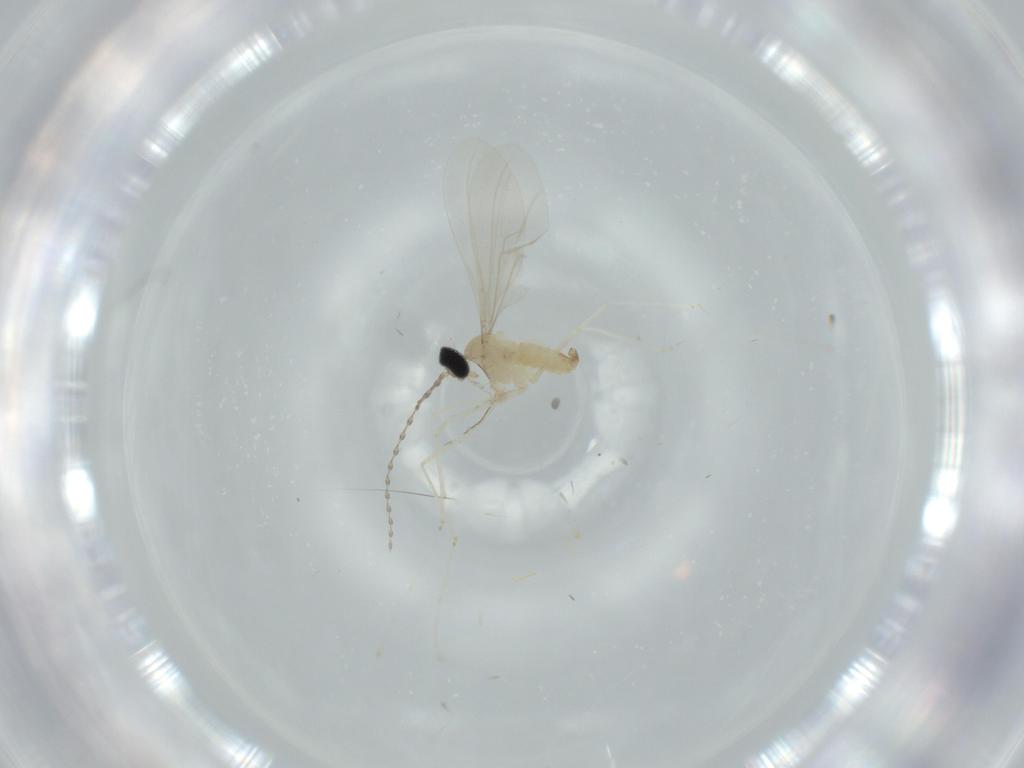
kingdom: Animalia
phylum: Arthropoda
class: Insecta
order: Diptera
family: Cecidomyiidae
